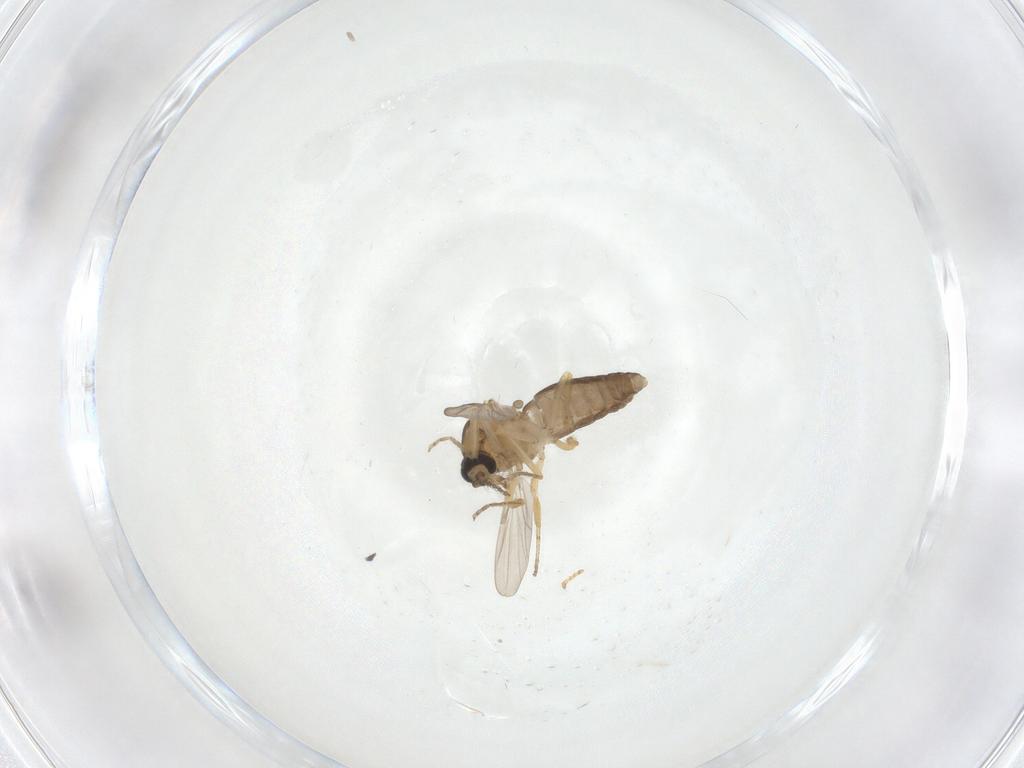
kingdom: Animalia
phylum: Arthropoda
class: Insecta
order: Diptera
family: Ceratopogonidae
